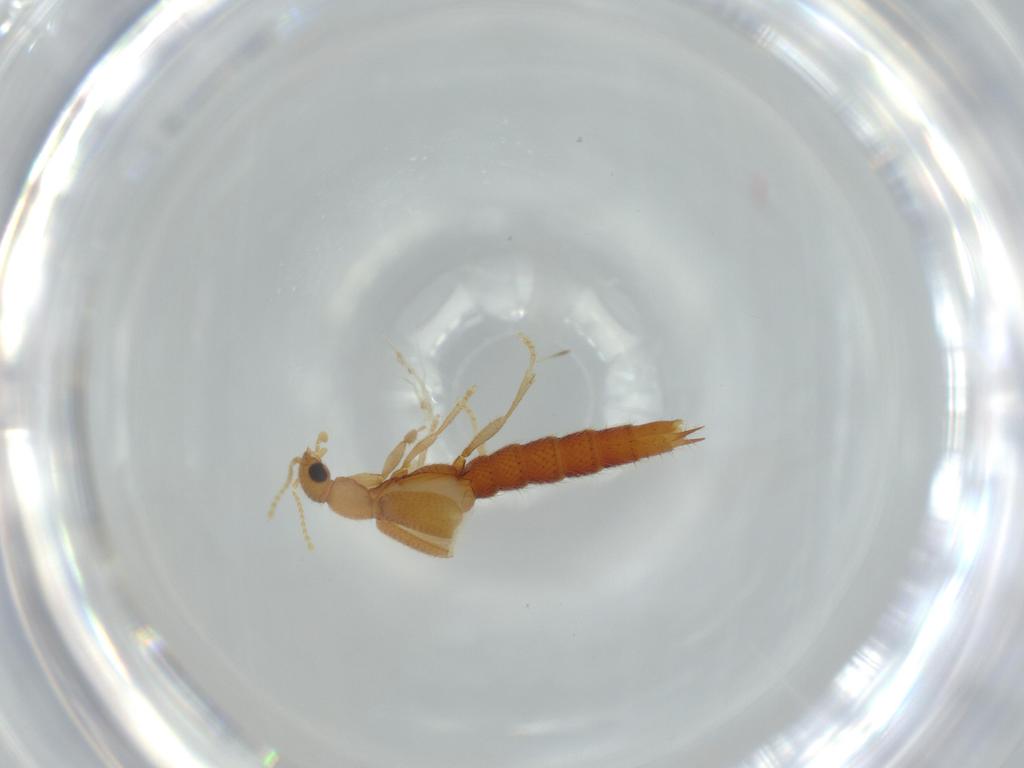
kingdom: Animalia
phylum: Arthropoda
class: Insecta
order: Coleoptera
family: Staphylinidae
